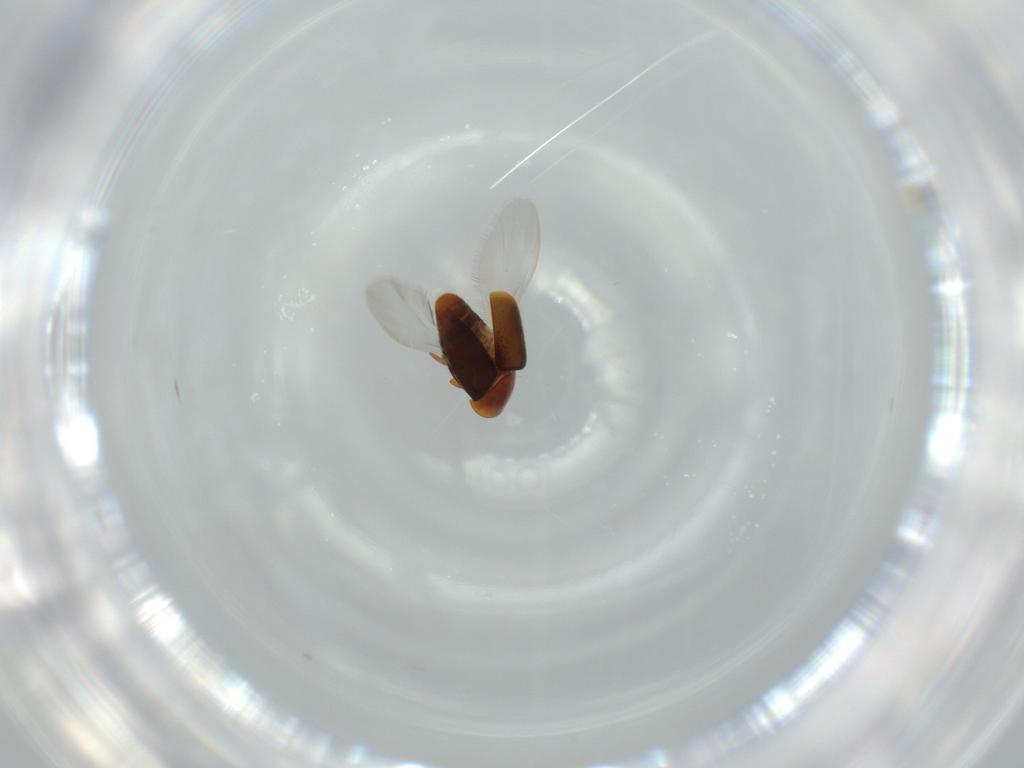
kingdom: Animalia
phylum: Arthropoda
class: Insecta
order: Coleoptera
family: Corylophidae
